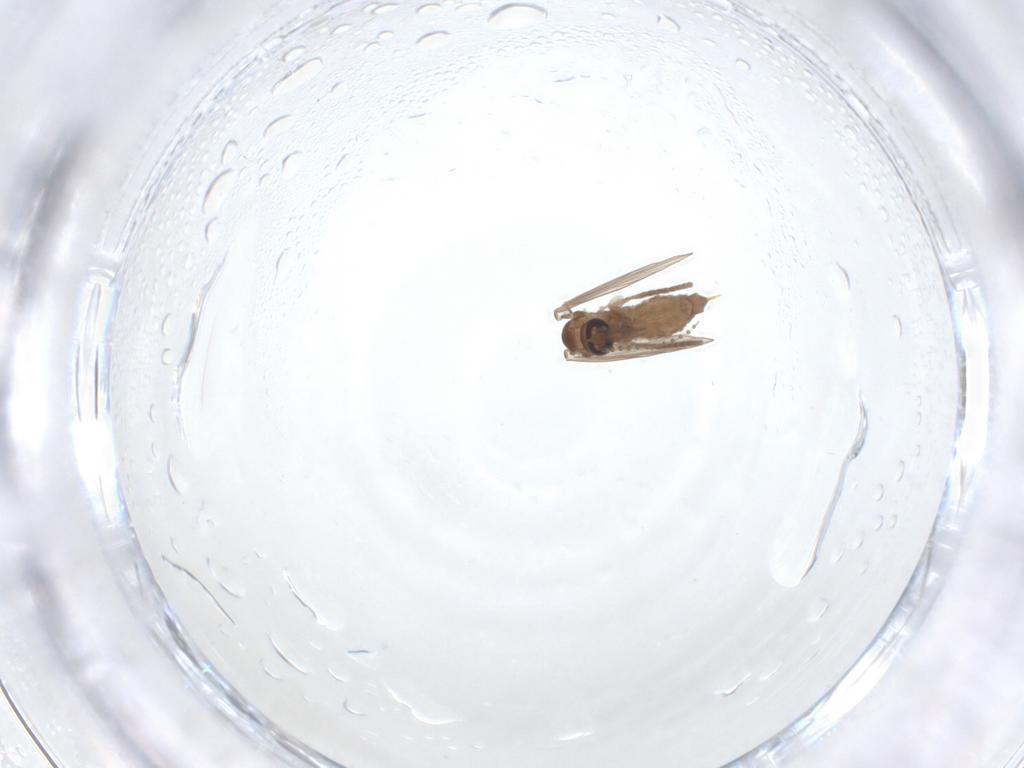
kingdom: Animalia
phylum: Arthropoda
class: Insecta
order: Diptera
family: Psychodidae
